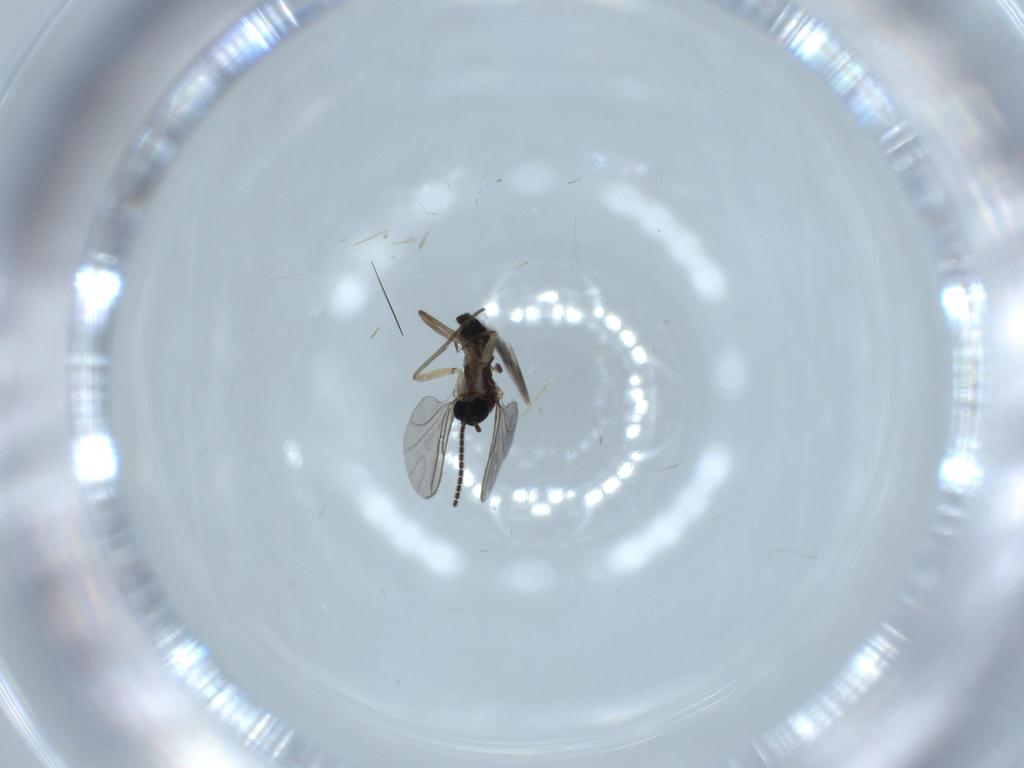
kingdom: Animalia
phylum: Arthropoda
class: Insecta
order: Diptera
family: Sciaridae
